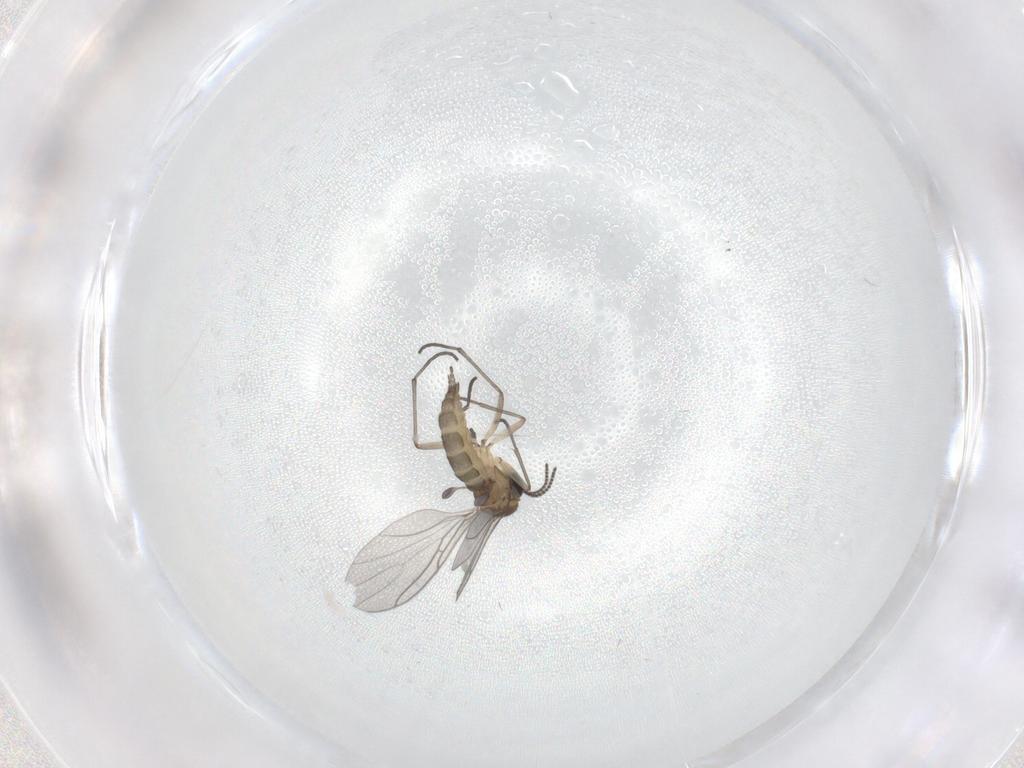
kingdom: Animalia
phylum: Arthropoda
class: Insecta
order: Diptera
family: Sciaridae
